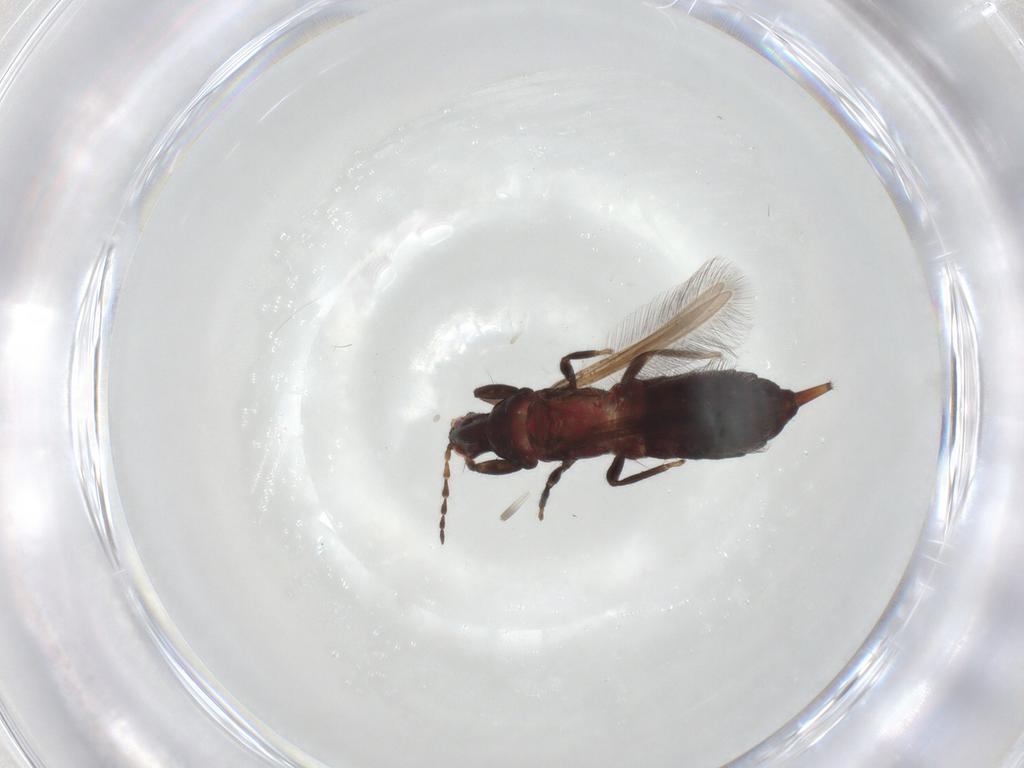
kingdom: Animalia
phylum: Arthropoda
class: Insecta
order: Thysanoptera
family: Phlaeothripidae
